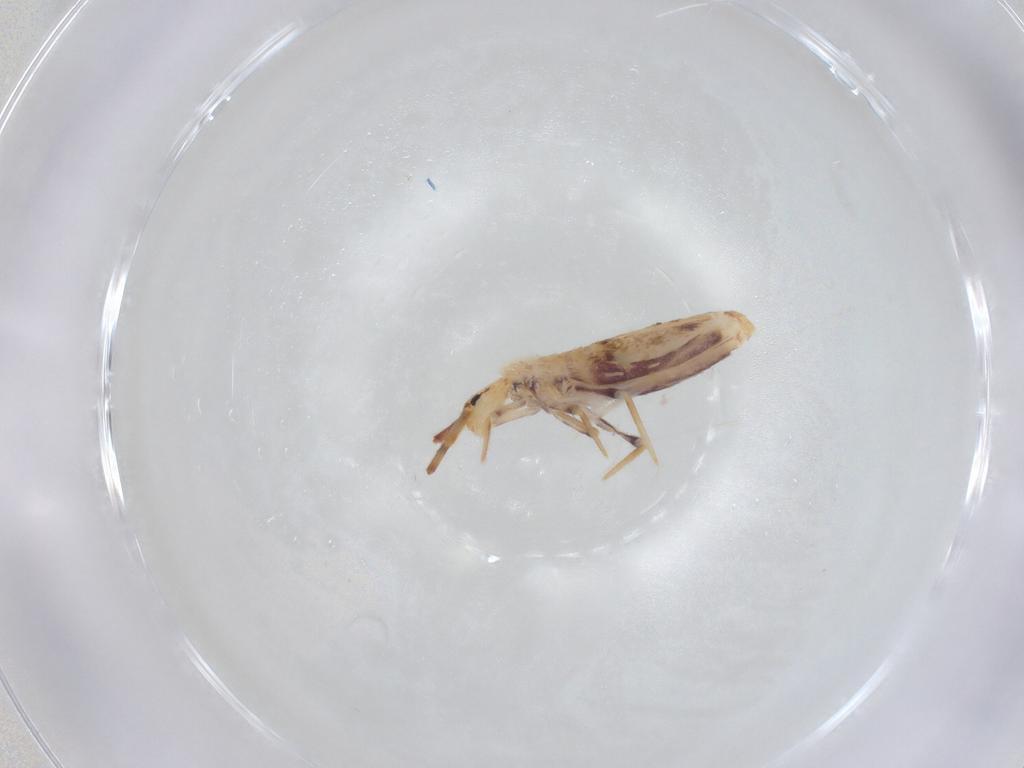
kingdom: Animalia
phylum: Arthropoda
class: Collembola
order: Poduromorpha
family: Hypogastruridae
